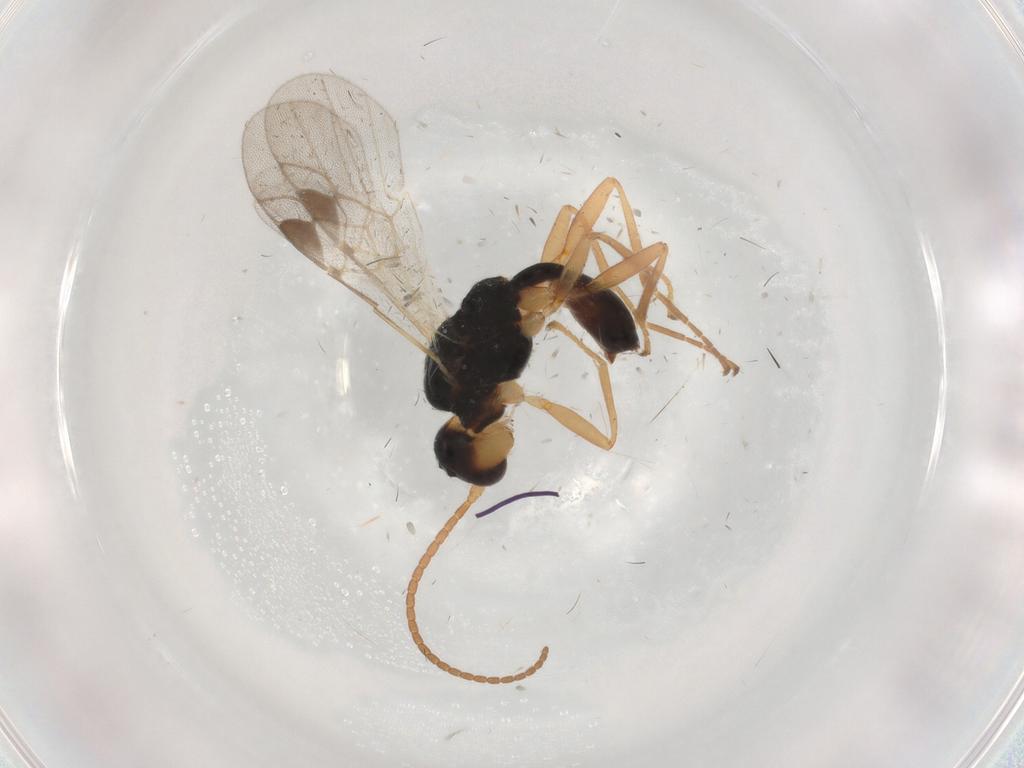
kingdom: Animalia
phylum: Arthropoda
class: Insecta
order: Hymenoptera
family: Braconidae
